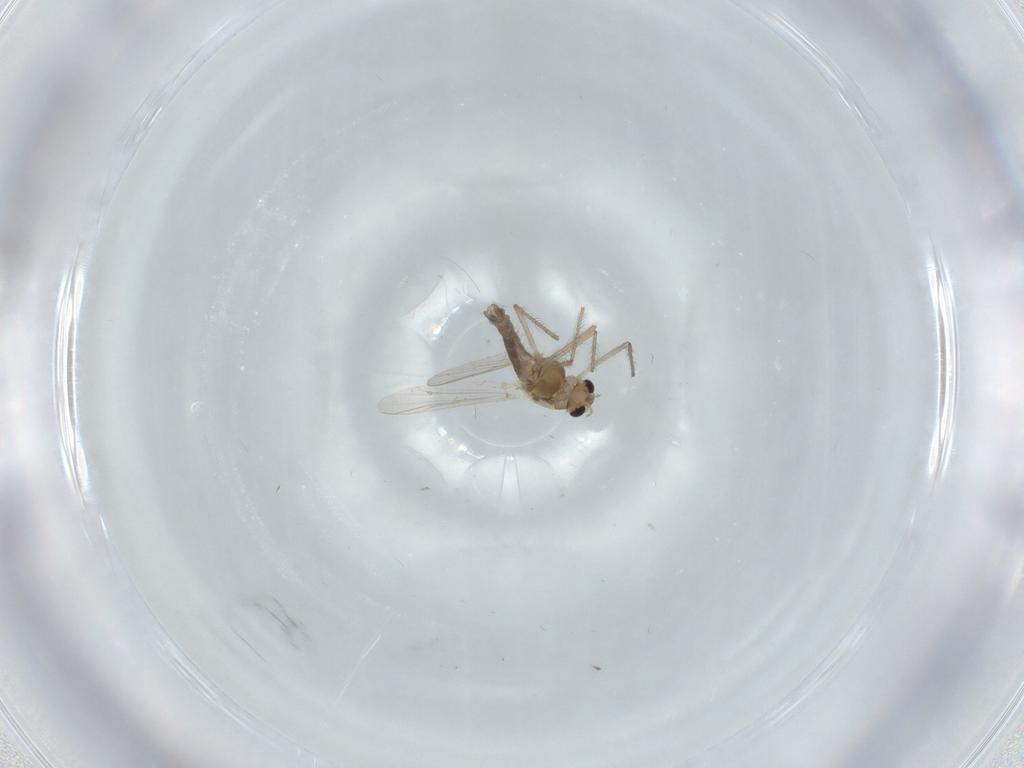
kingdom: Animalia
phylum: Arthropoda
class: Insecta
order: Diptera
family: Chironomidae
